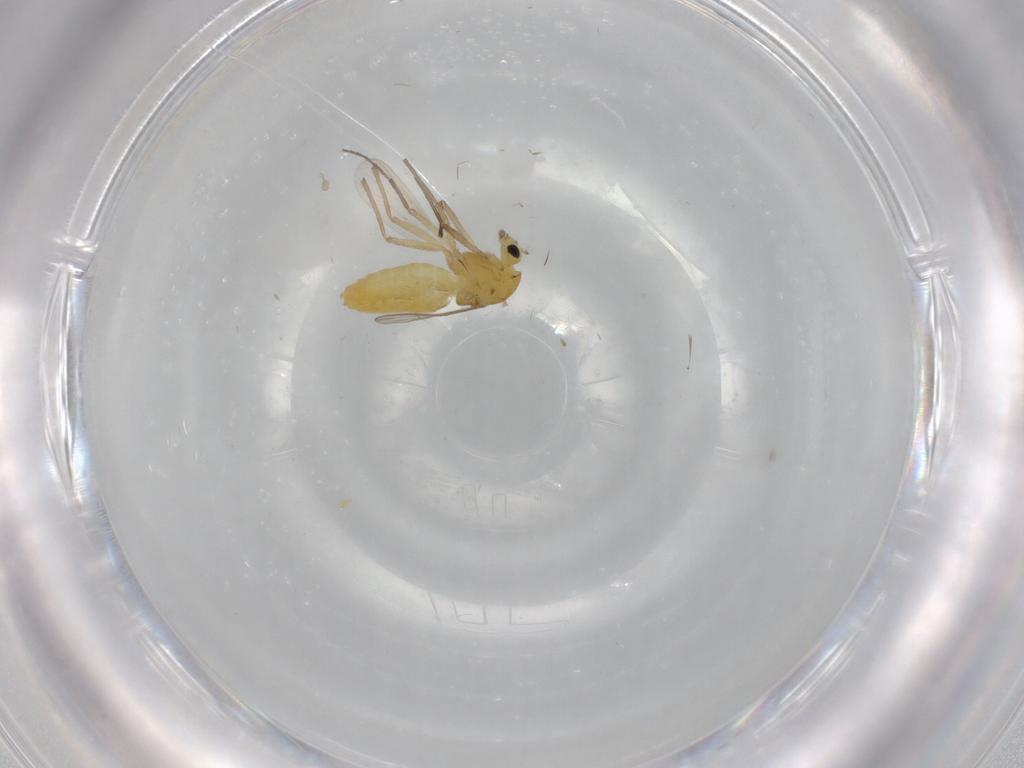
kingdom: Animalia
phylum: Arthropoda
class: Insecta
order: Diptera
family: Chironomidae
